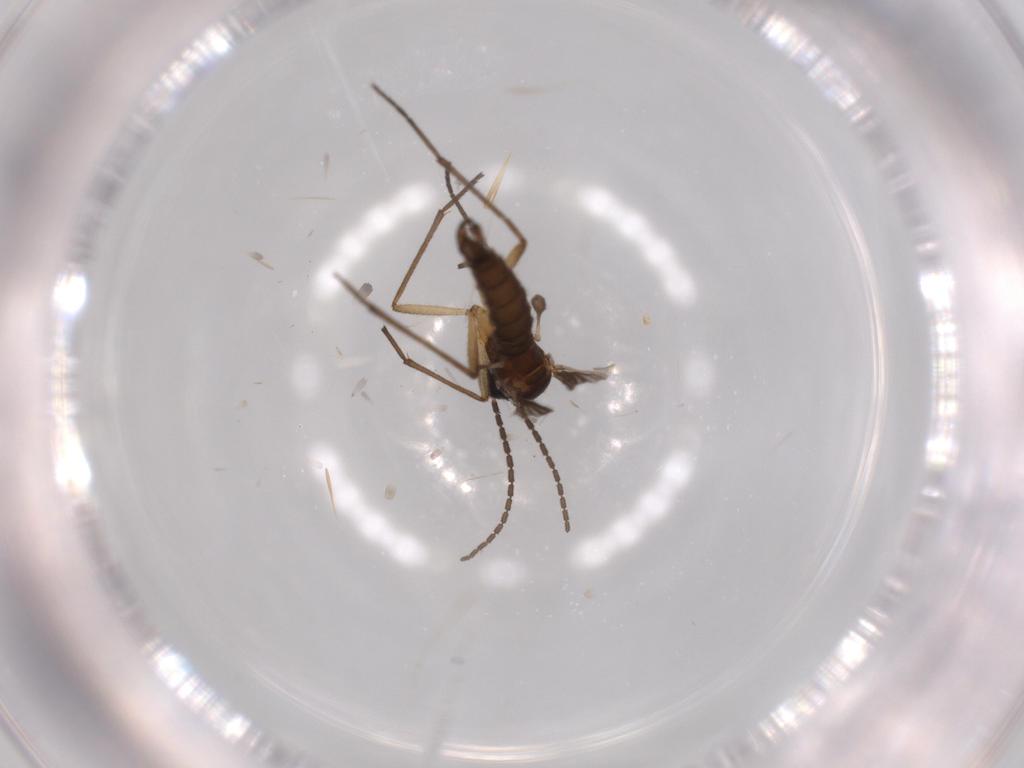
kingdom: Animalia
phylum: Arthropoda
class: Insecta
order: Diptera
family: Sciaridae
